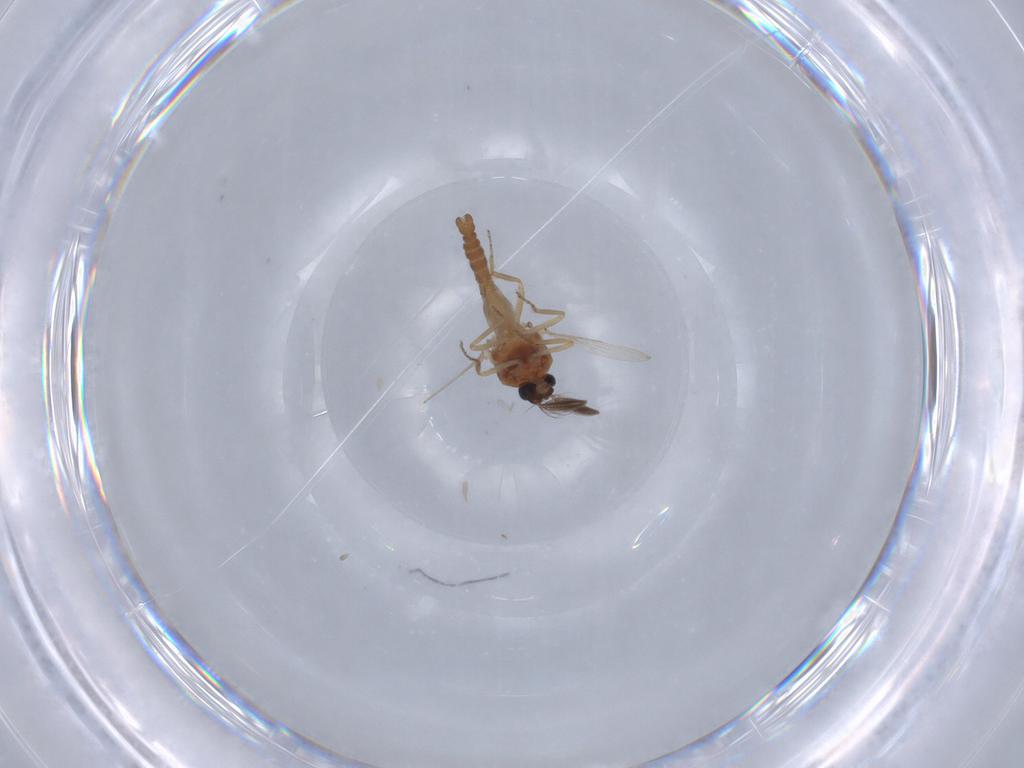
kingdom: Animalia
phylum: Arthropoda
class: Insecta
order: Diptera
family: Ceratopogonidae
